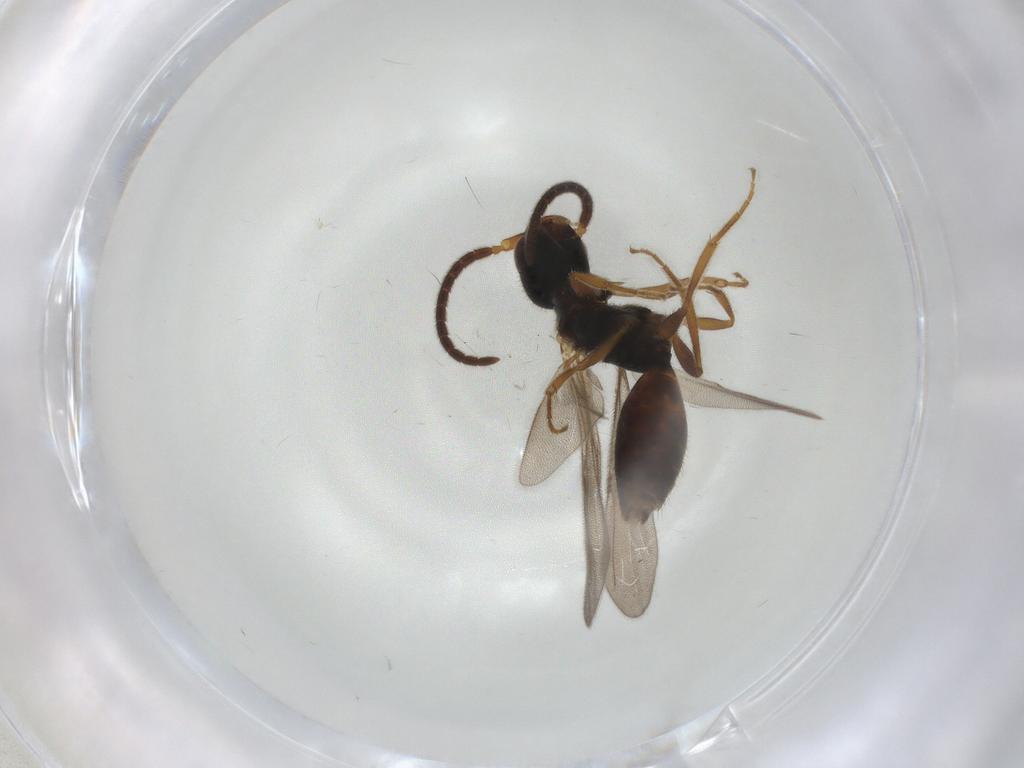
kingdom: Animalia
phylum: Arthropoda
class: Insecta
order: Hymenoptera
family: Bethylidae
